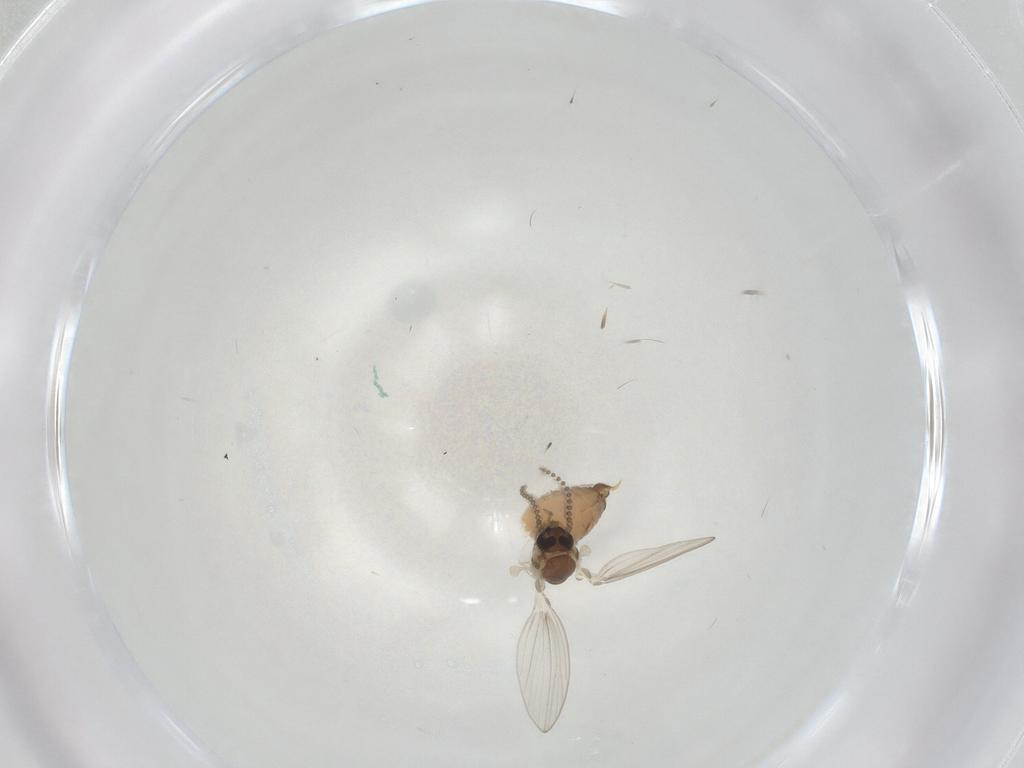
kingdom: Animalia
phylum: Arthropoda
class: Insecta
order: Diptera
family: Psychodidae
